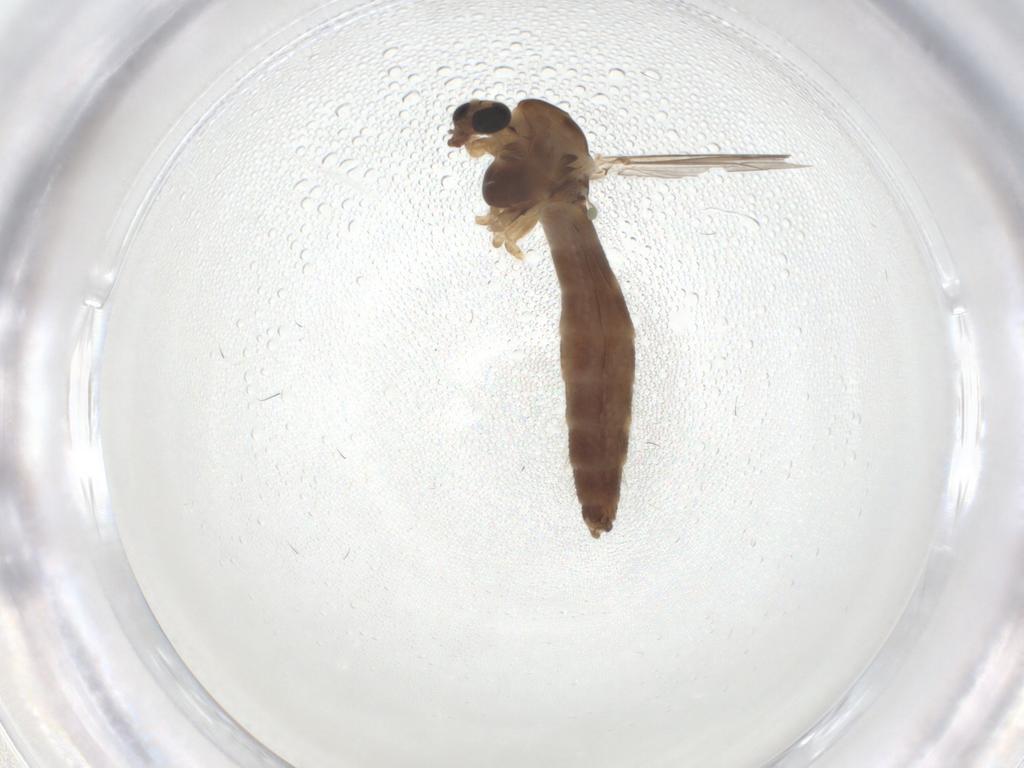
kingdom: Animalia
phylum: Arthropoda
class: Insecta
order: Diptera
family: Chironomidae
